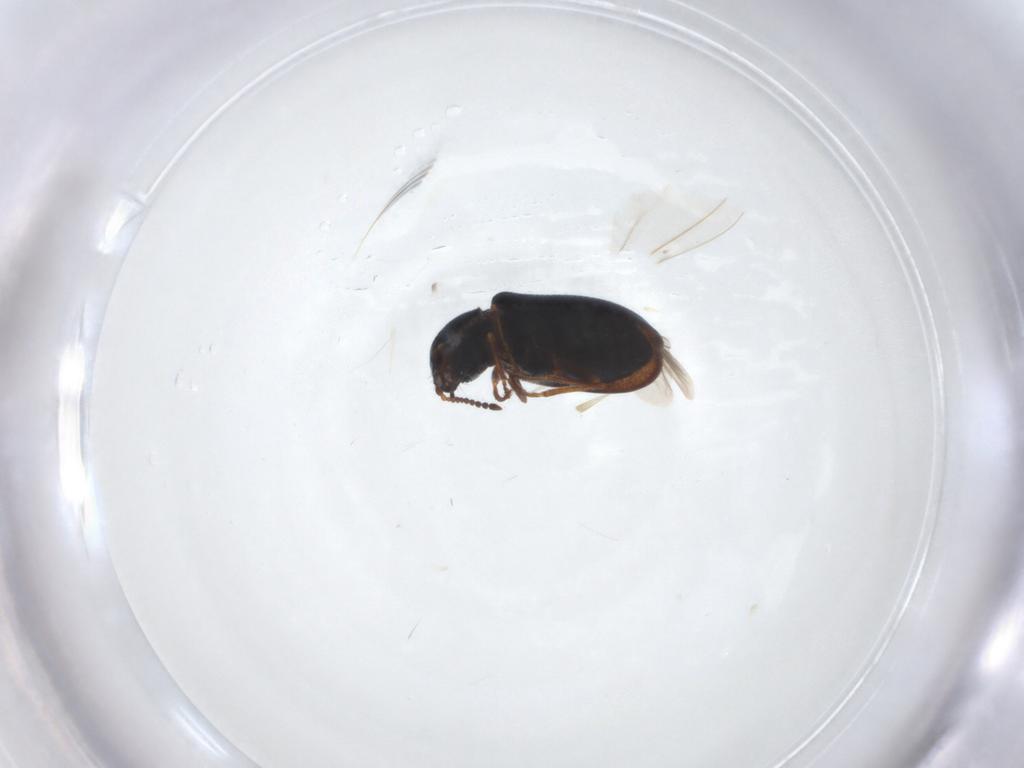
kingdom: Animalia
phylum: Arthropoda
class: Insecta
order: Coleoptera
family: Melyridae
